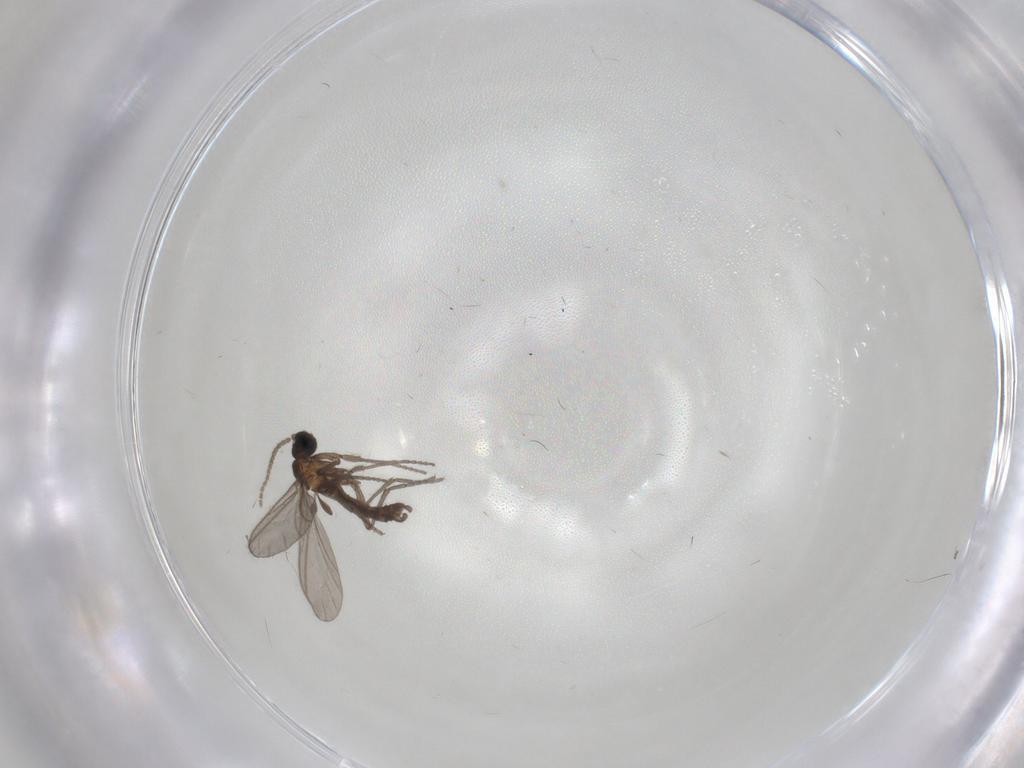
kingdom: Animalia
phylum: Arthropoda
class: Insecta
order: Diptera
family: Sciaridae
